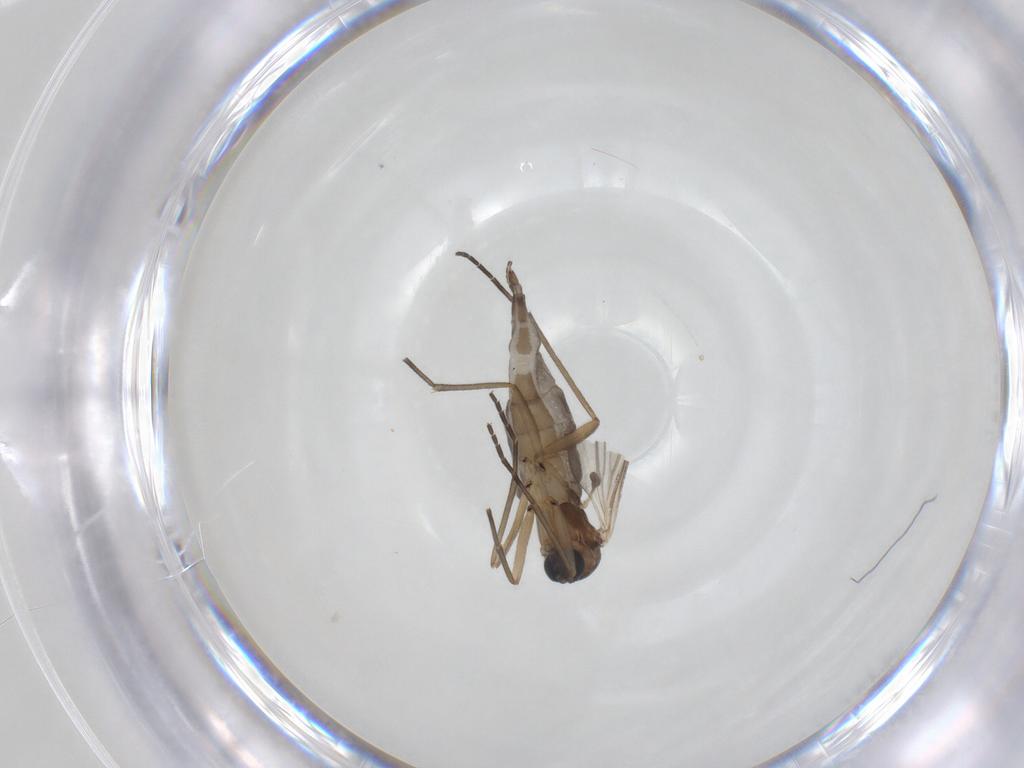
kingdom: Animalia
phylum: Arthropoda
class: Insecta
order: Diptera
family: Sciaridae
